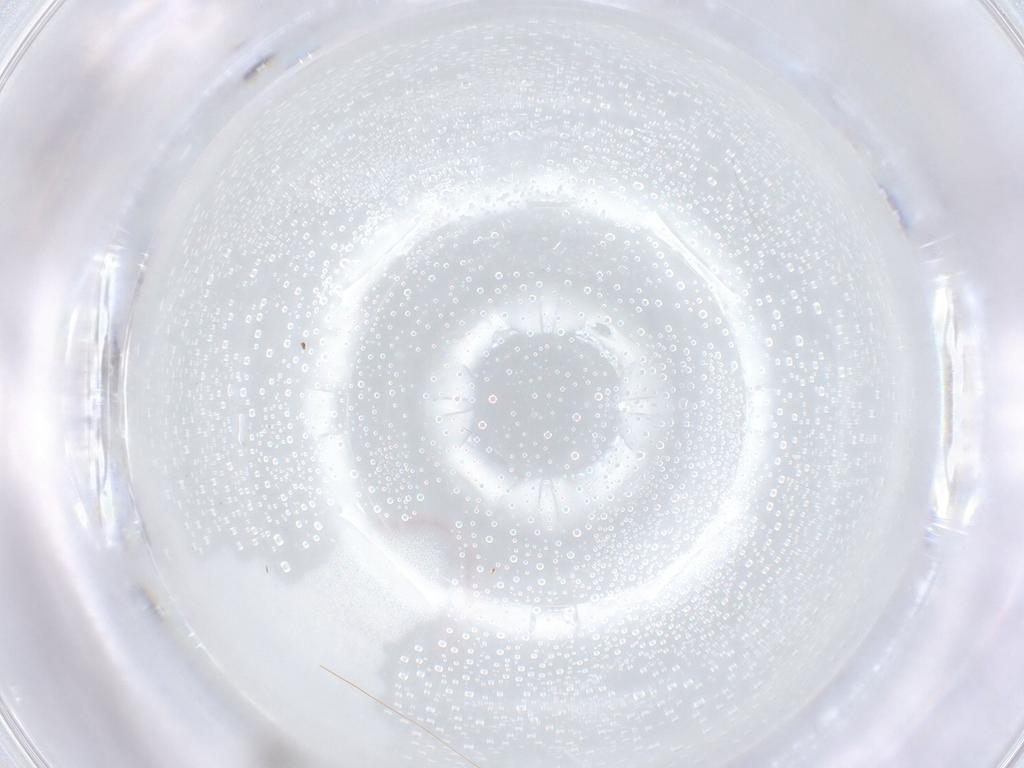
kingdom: Animalia
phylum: Arthropoda
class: Insecta
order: Diptera
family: Cecidomyiidae
